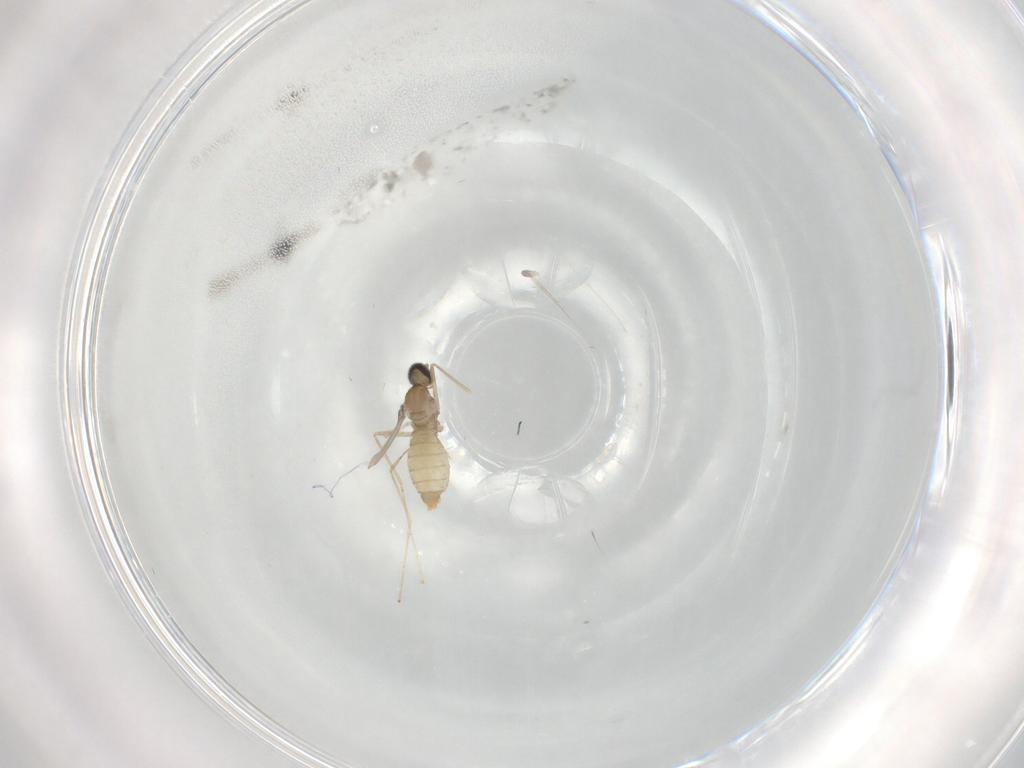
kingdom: Animalia
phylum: Arthropoda
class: Insecta
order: Diptera
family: Cecidomyiidae
